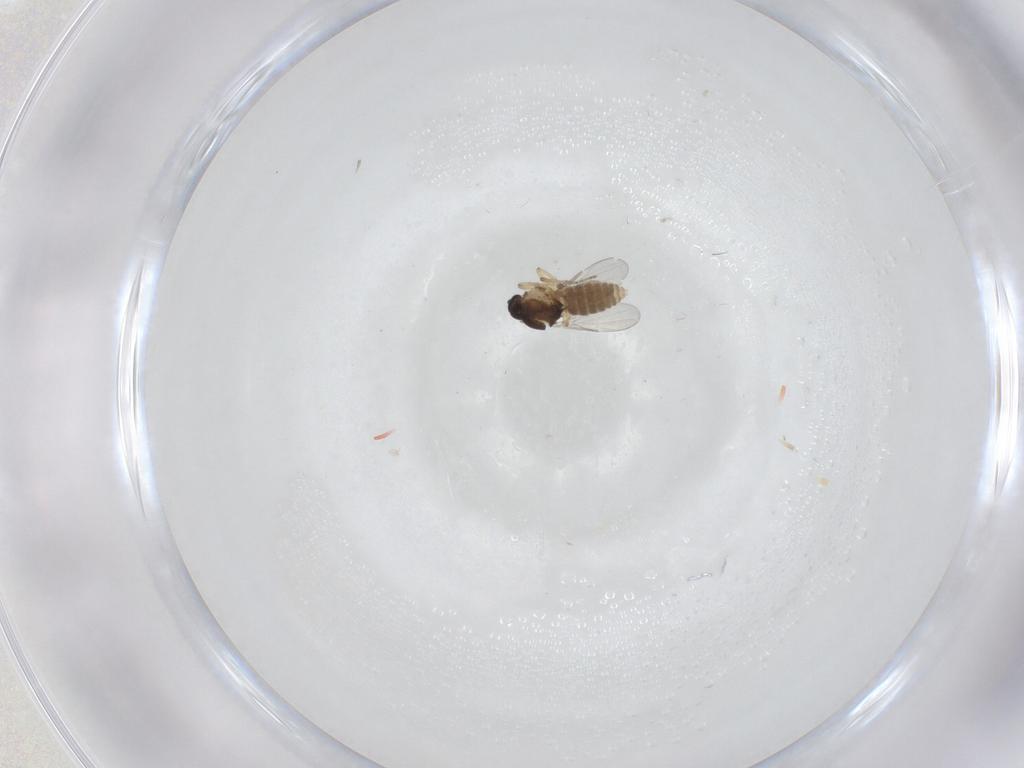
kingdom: Animalia
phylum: Arthropoda
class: Insecta
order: Diptera
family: Ceratopogonidae
